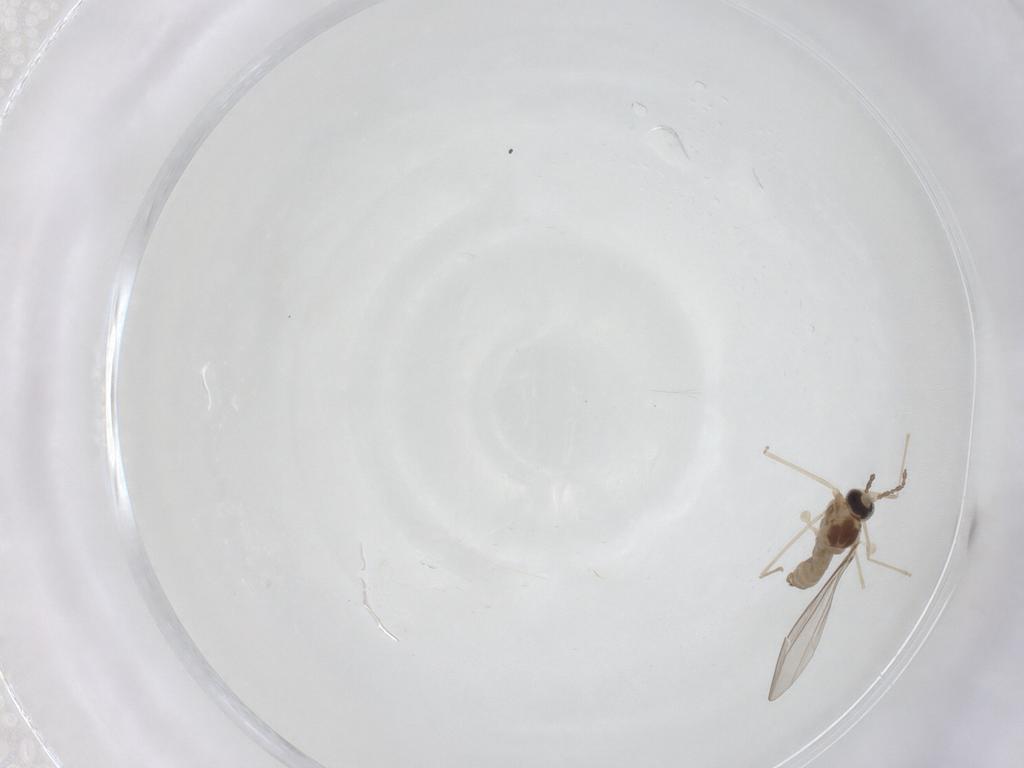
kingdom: Animalia
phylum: Arthropoda
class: Insecta
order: Diptera
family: Cecidomyiidae
